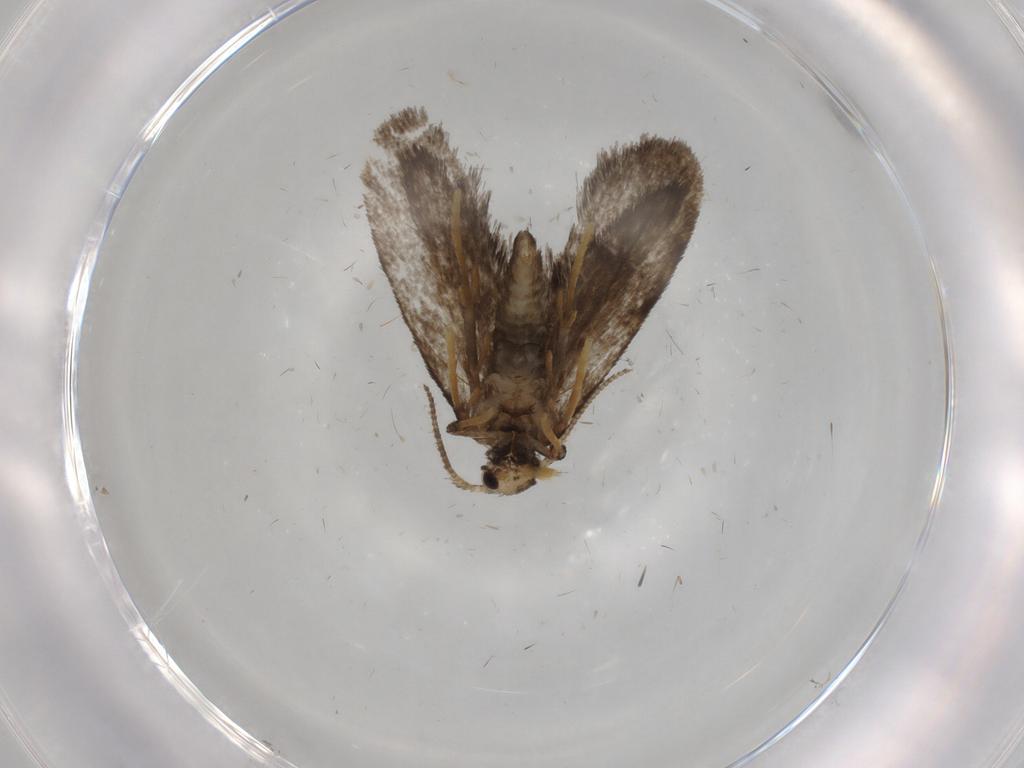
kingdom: Animalia
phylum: Arthropoda
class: Insecta
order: Lepidoptera
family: Psychidae
